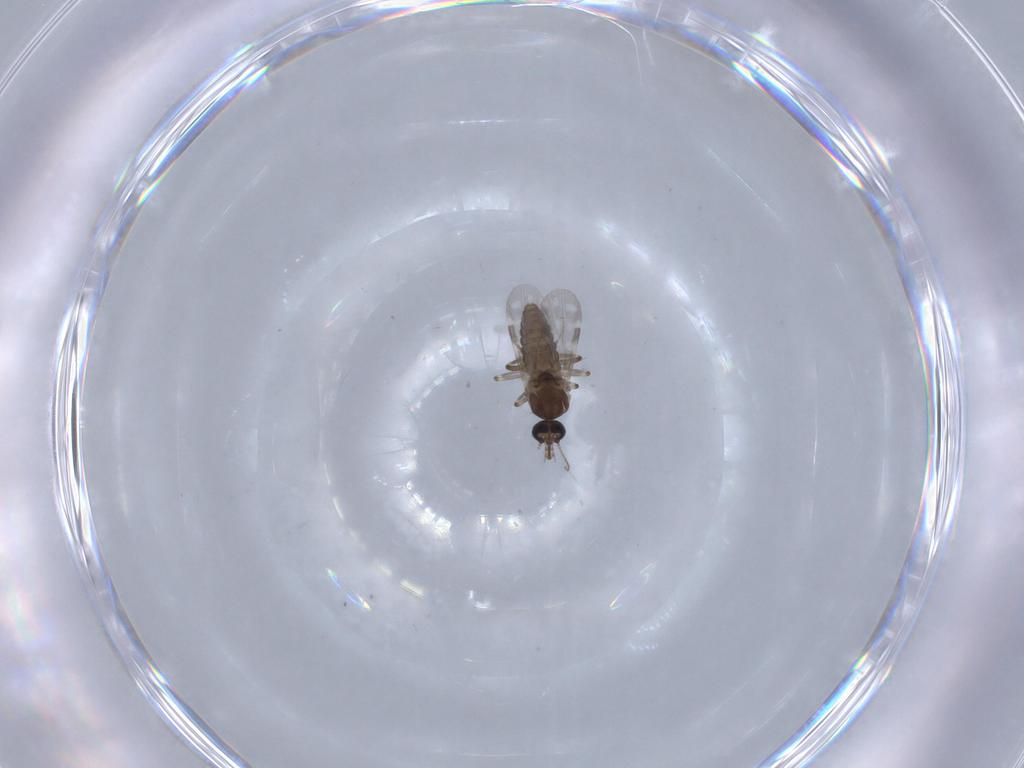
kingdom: Animalia
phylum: Arthropoda
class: Insecta
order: Diptera
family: Ceratopogonidae
